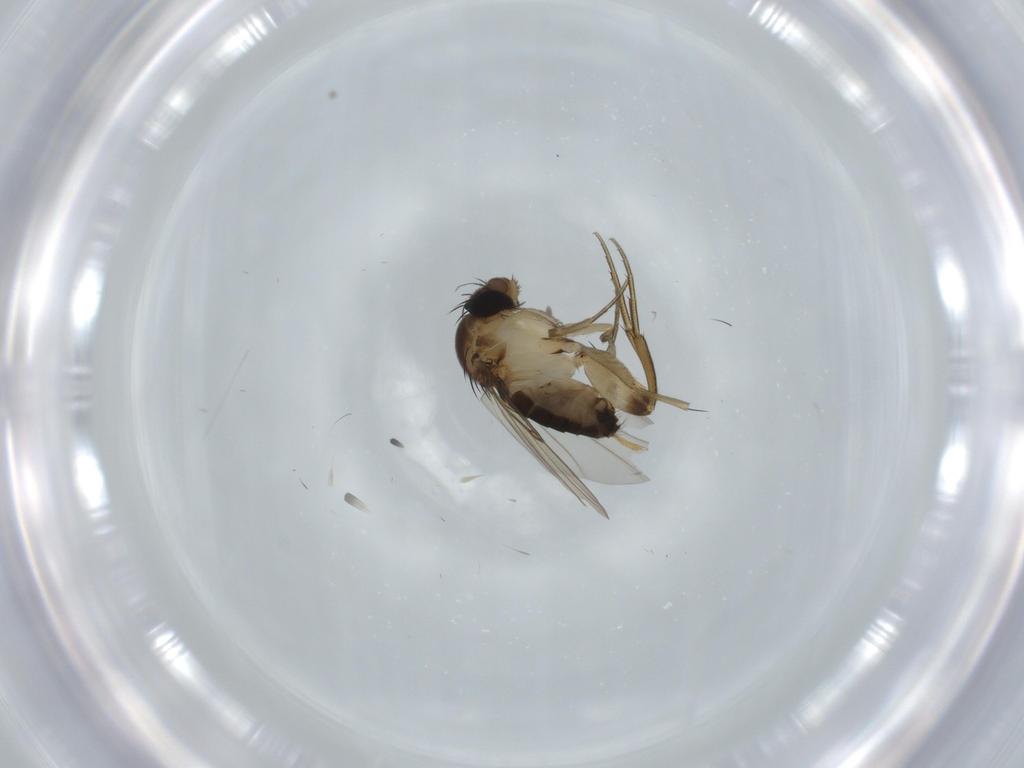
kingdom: Animalia
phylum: Arthropoda
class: Insecta
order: Diptera
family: Phoridae
